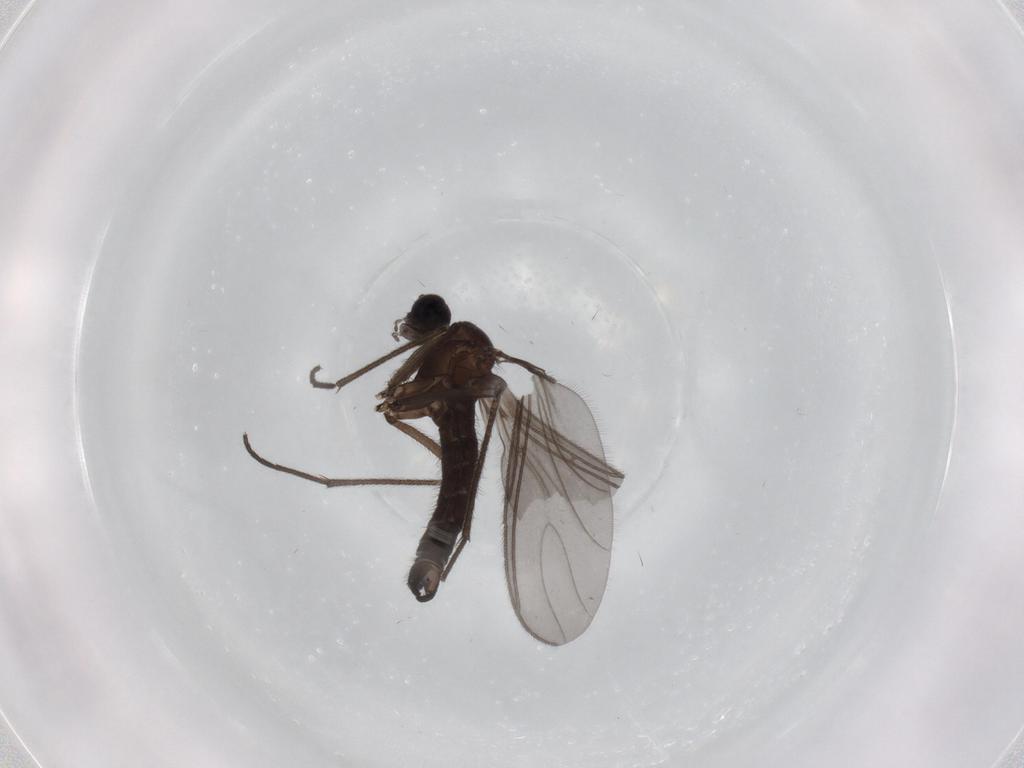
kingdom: Animalia
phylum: Arthropoda
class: Insecta
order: Diptera
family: Sciaridae
